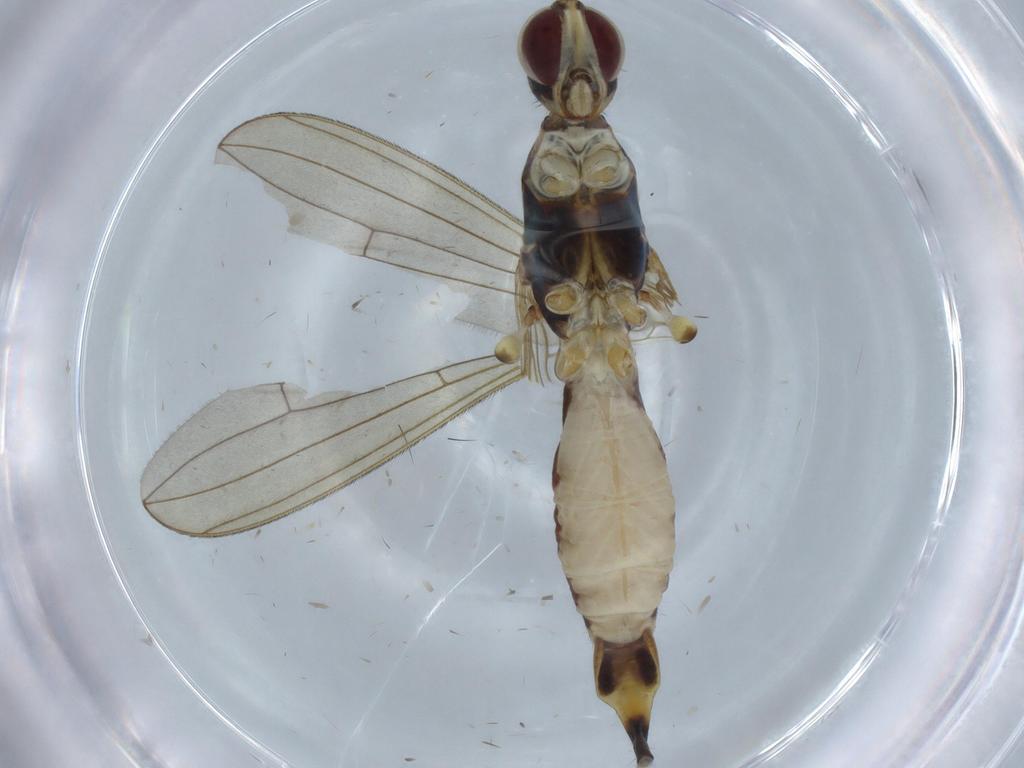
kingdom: Animalia
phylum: Arthropoda
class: Insecta
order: Diptera
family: Micropezidae
